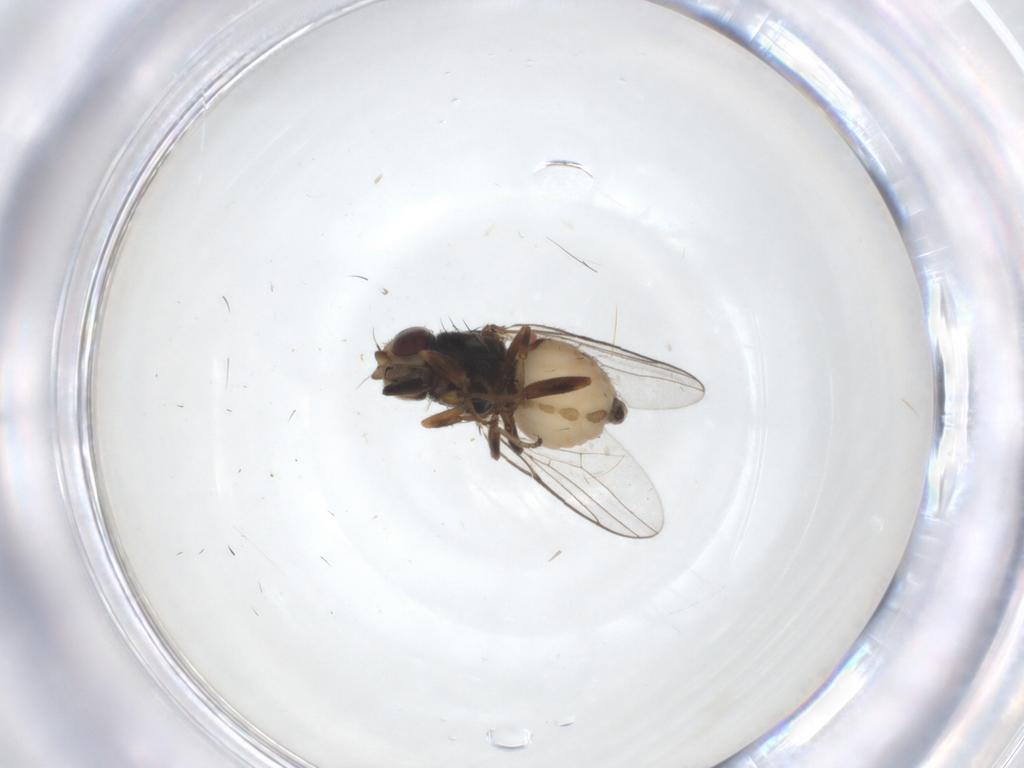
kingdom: Animalia
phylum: Arthropoda
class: Insecta
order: Diptera
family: Chloropidae
